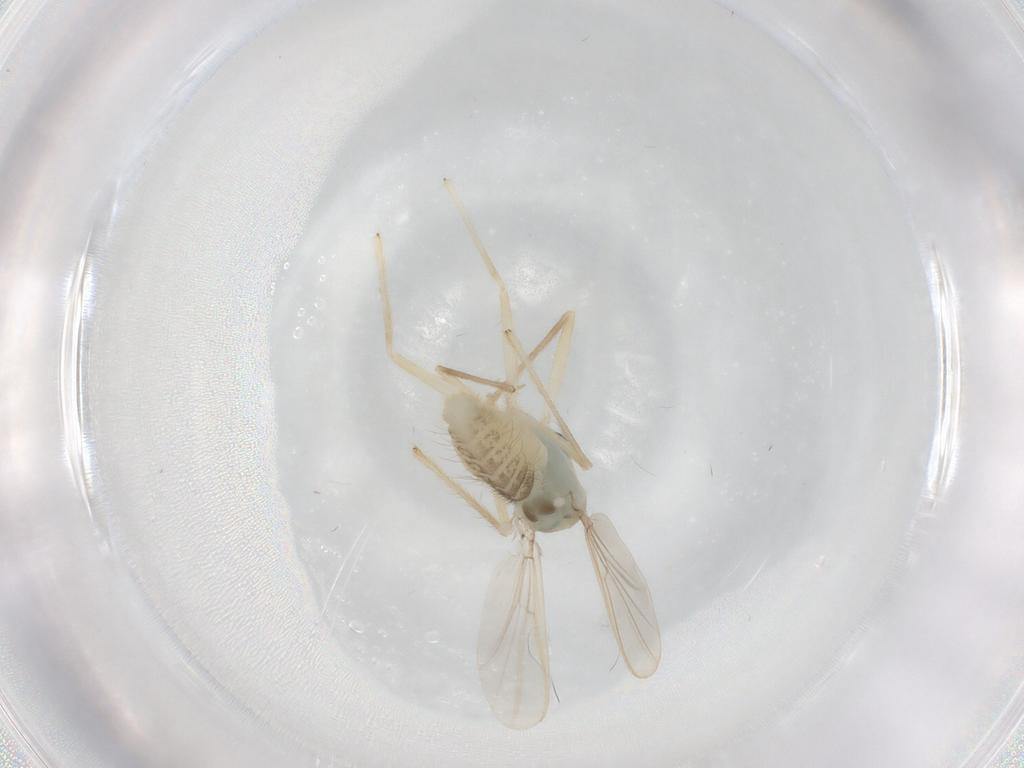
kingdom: Animalia
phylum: Arthropoda
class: Insecta
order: Diptera
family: Chironomidae
